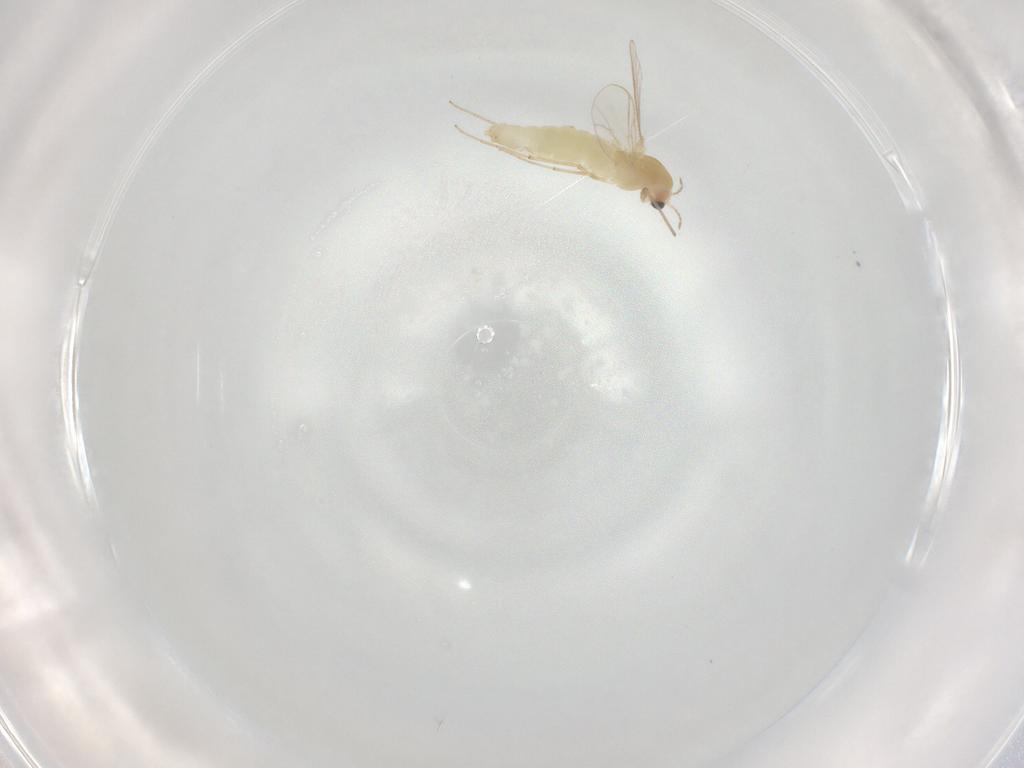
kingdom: Animalia
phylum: Arthropoda
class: Insecta
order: Diptera
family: Chironomidae
